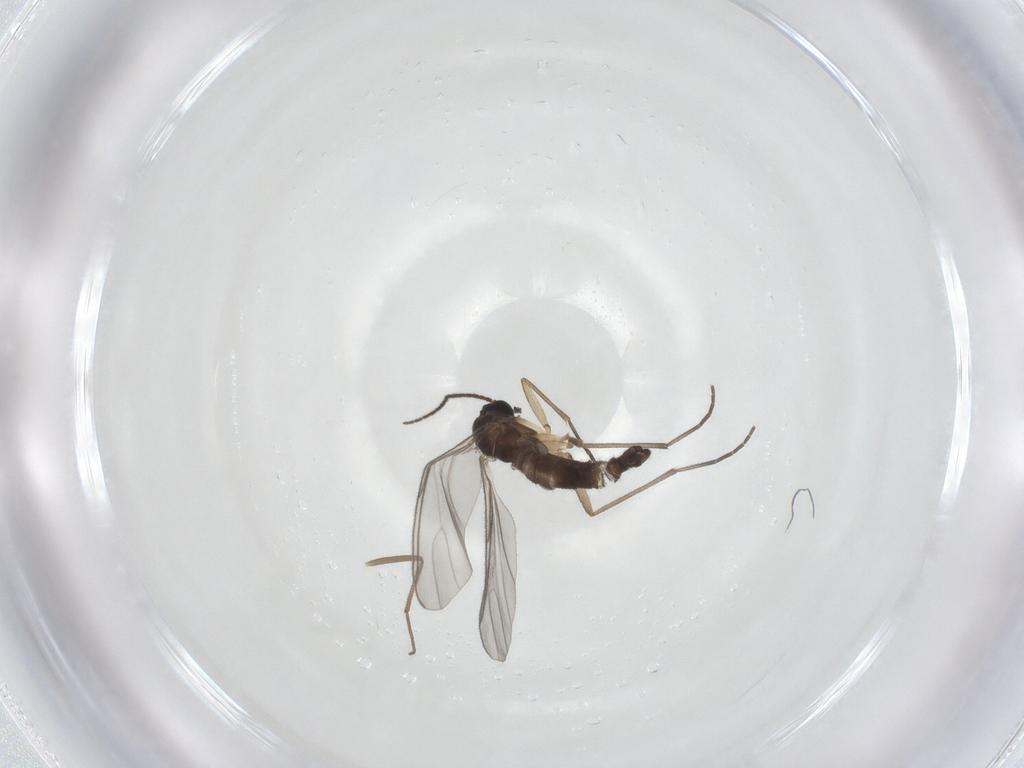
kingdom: Animalia
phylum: Arthropoda
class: Insecta
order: Diptera
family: Sciaridae
